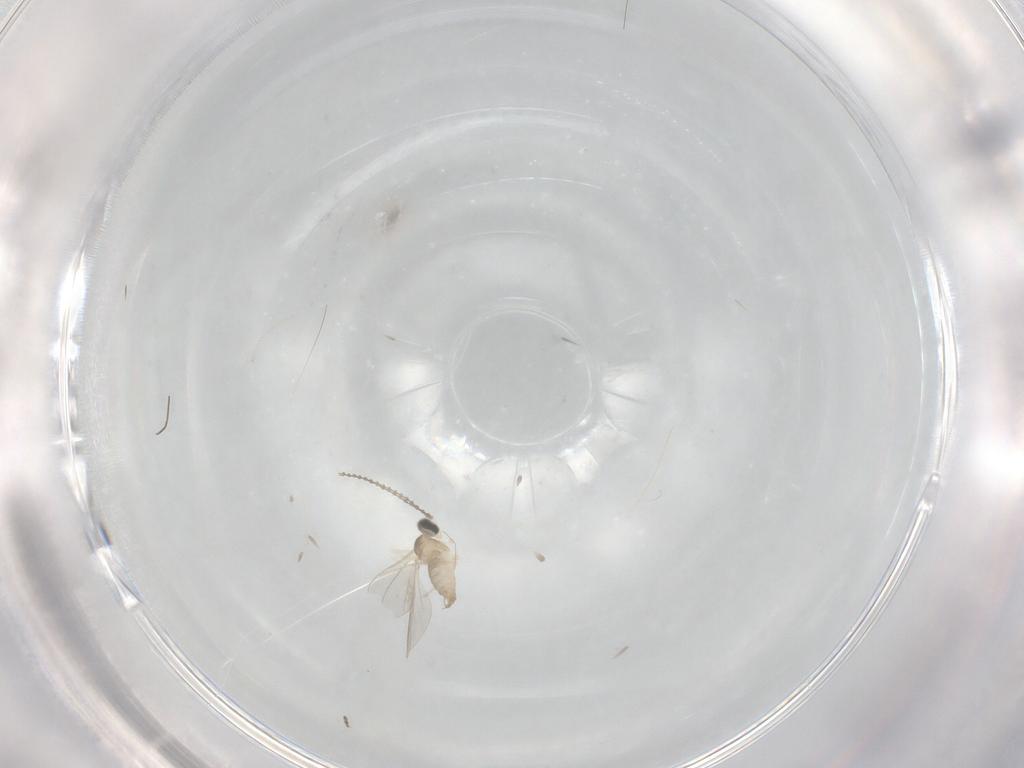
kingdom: Animalia
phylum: Arthropoda
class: Insecta
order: Diptera
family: Cecidomyiidae
